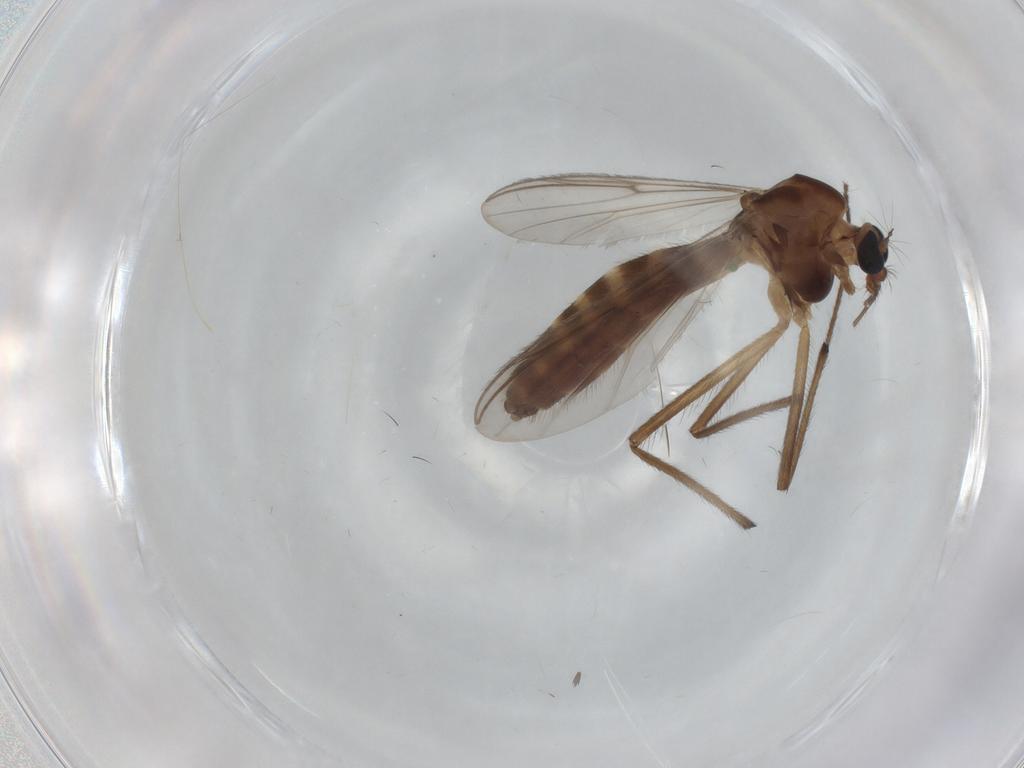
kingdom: Animalia
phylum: Arthropoda
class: Insecta
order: Diptera
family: Chironomidae
